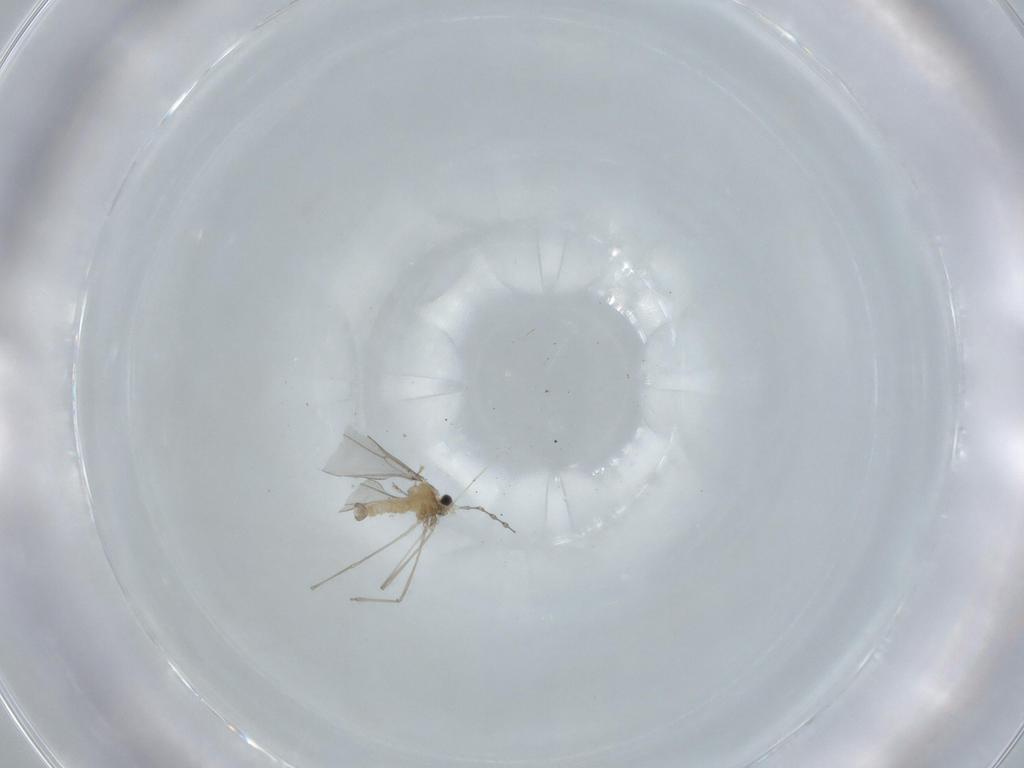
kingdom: Animalia
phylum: Arthropoda
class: Insecta
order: Diptera
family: Cecidomyiidae
